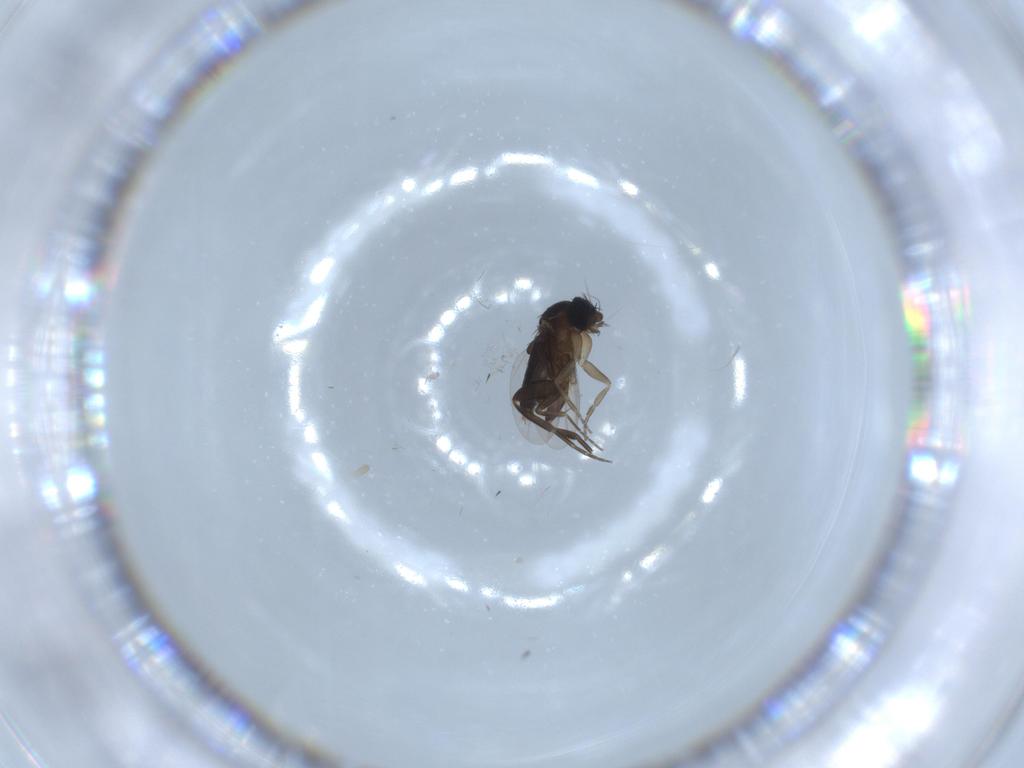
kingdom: Animalia
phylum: Arthropoda
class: Insecta
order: Diptera
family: Phoridae
